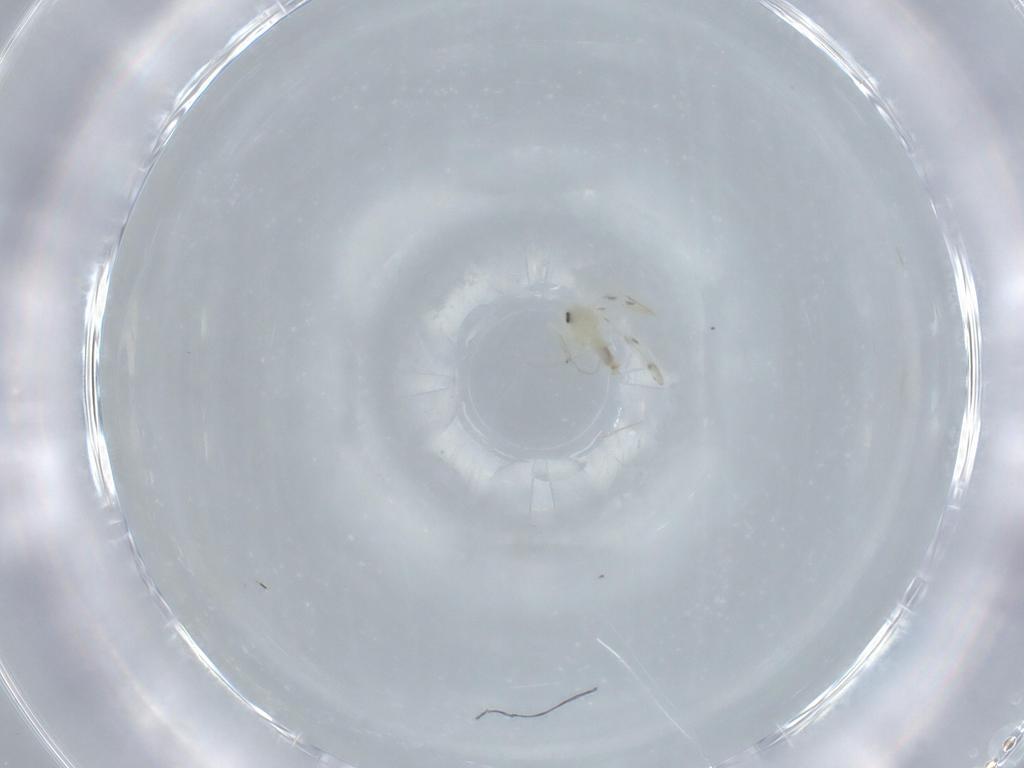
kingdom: Animalia
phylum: Arthropoda
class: Insecta
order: Hemiptera
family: Aleyrodidae
